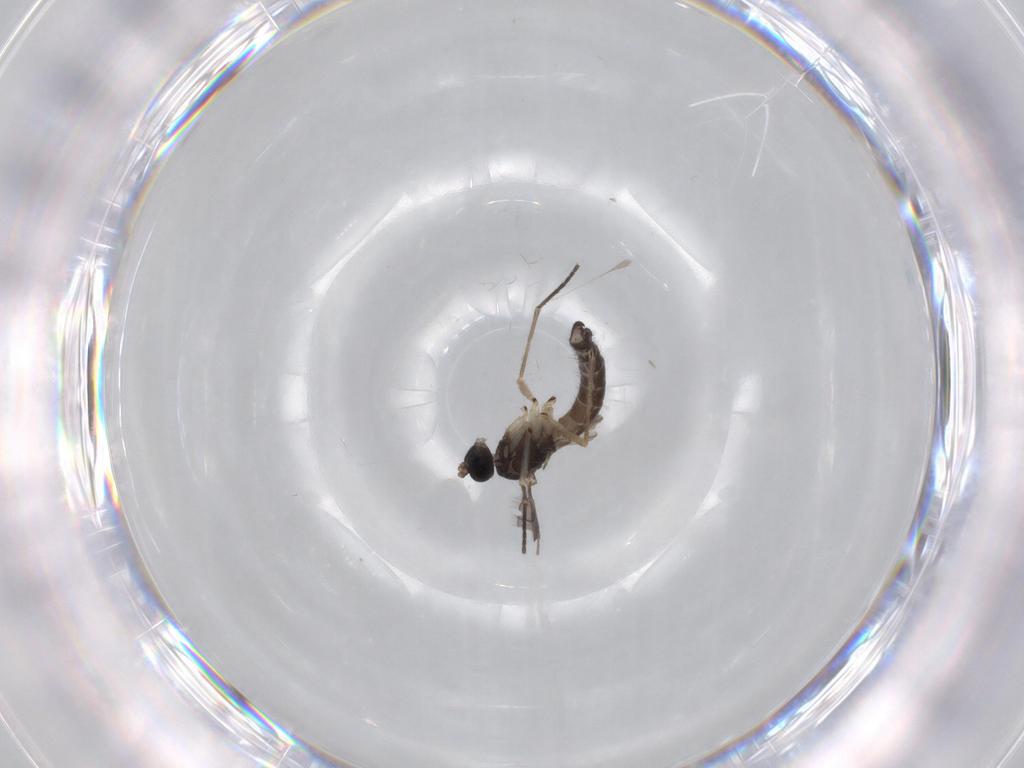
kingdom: Animalia
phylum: Arthropoda
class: Insecta
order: Diptera
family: Sciaridae
